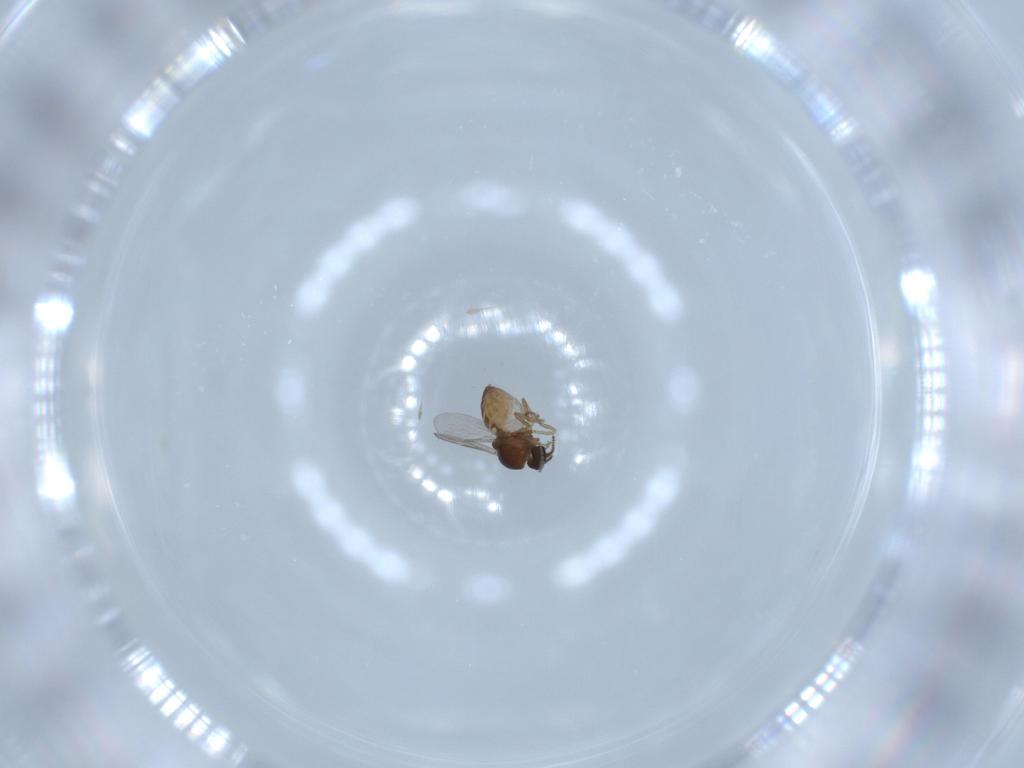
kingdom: Animalia
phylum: Arthropoda
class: Insecta
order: Diptera
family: Ceratopogonidae
